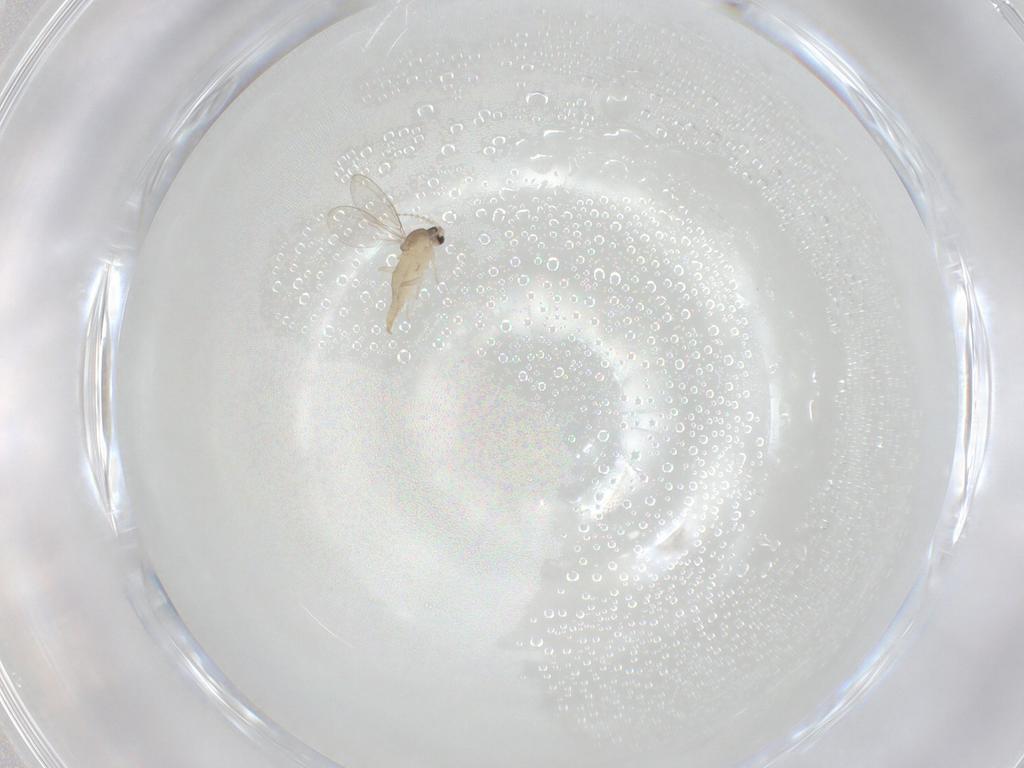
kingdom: Animalia
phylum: Arthropoda
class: Insecta
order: Diptera
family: Cecidomyiidae
